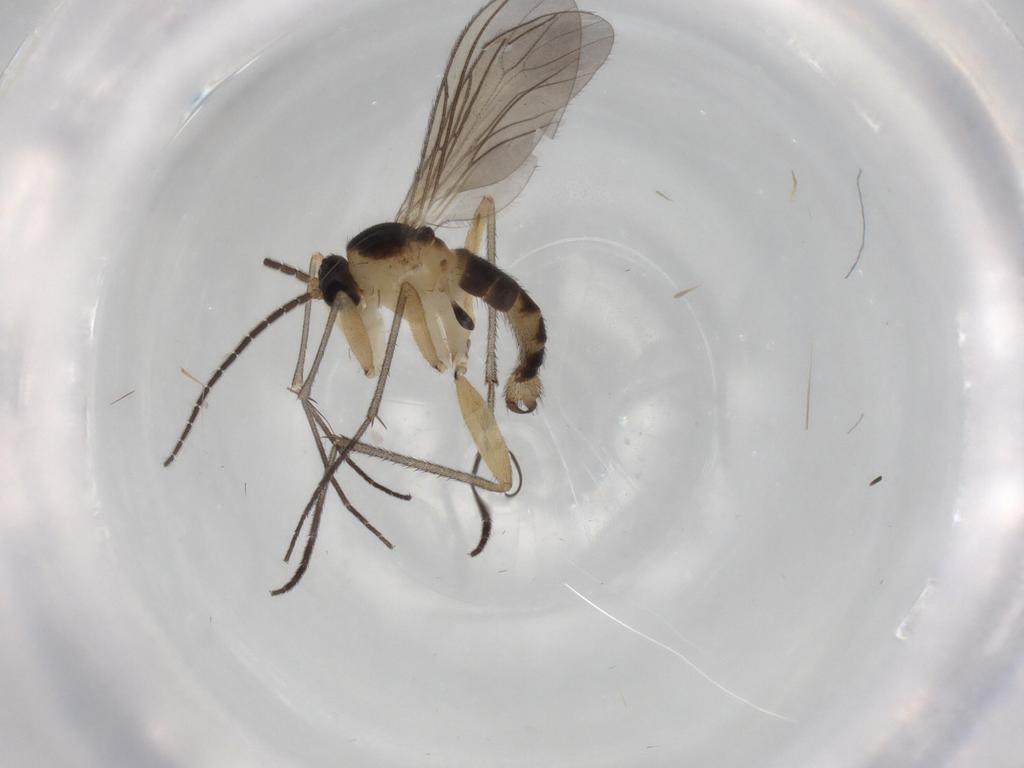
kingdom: Animalia
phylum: Arthropoda
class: Insecta
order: Diptera
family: Sciaridae
